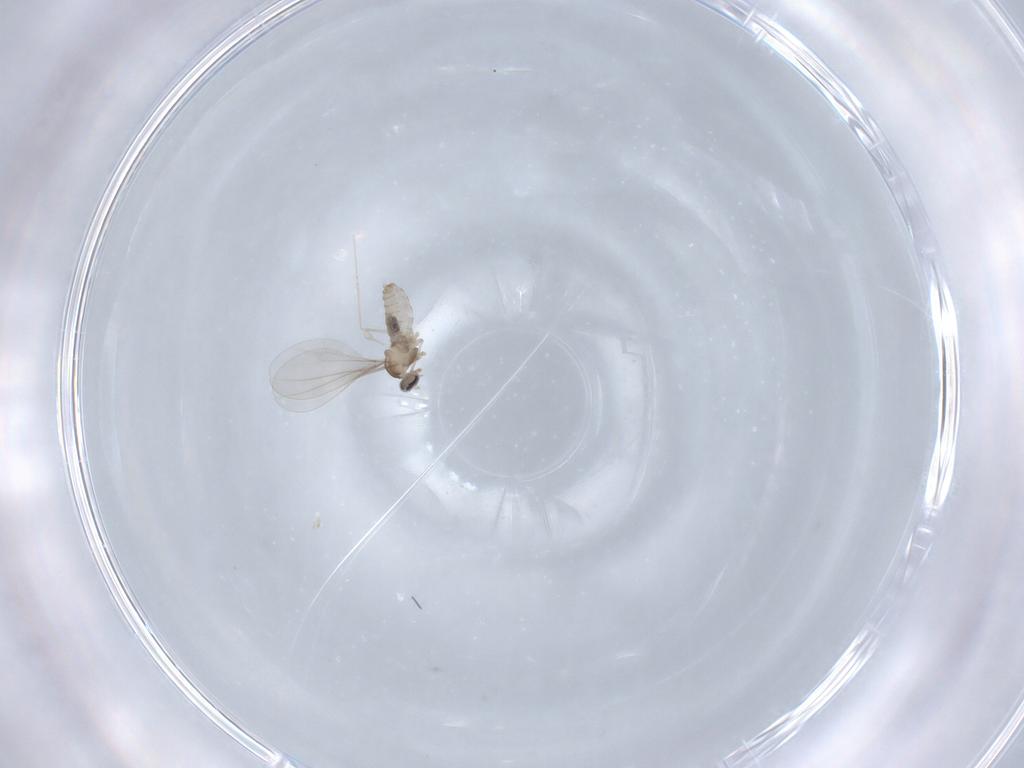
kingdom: Animalia
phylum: Arthropoda
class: Insecta
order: Diptera
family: Cecidomyiidae
